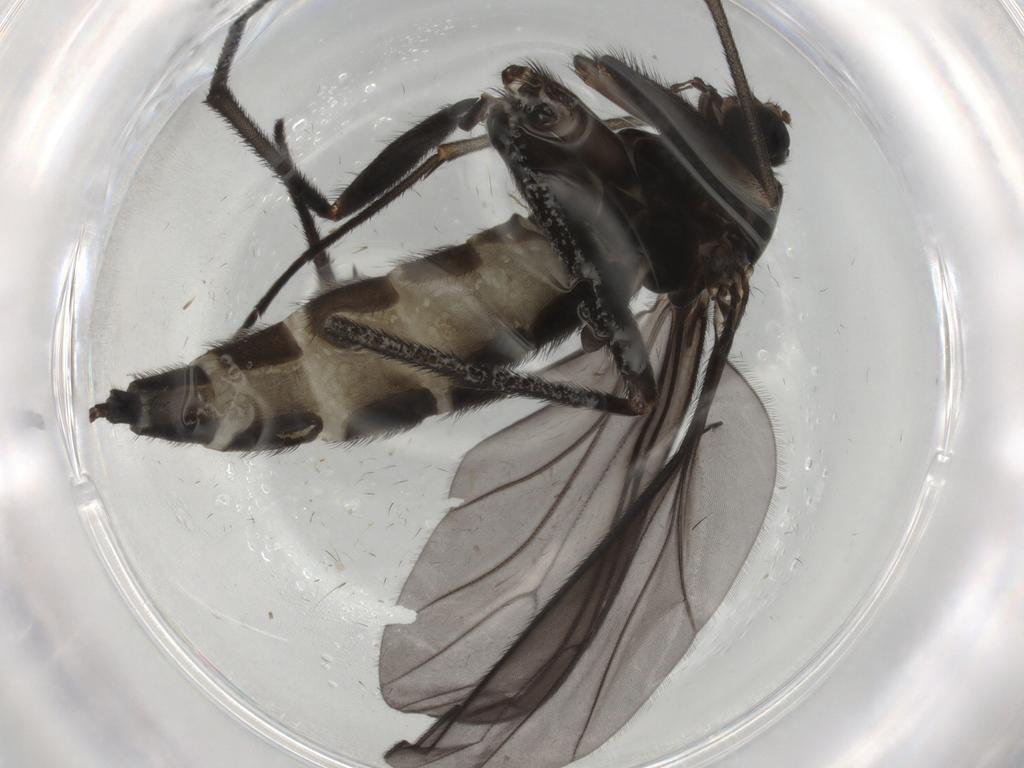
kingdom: Animalia
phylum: Arthropoda
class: Insecta
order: Diptera
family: Sciaridae
